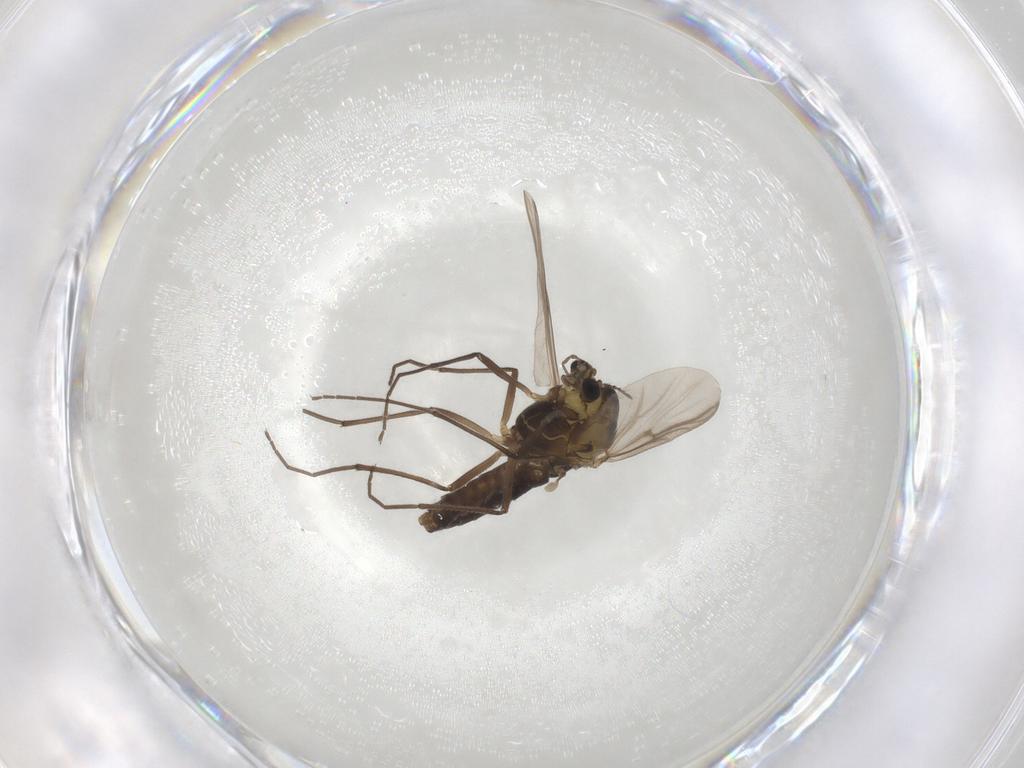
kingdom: Animalia
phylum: Arthropoda
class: Insecta
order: Diptera
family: Chironomidae
